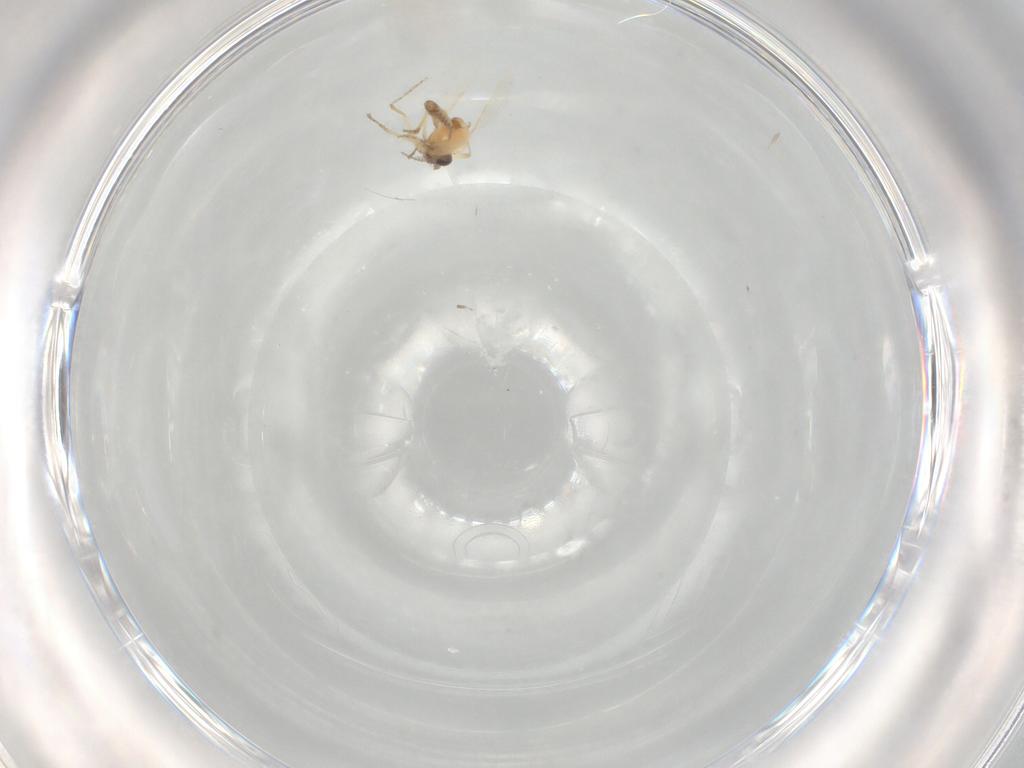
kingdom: Animalia
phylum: Arthropoda
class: Insecta
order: Diptera
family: Ceratopogonidae
